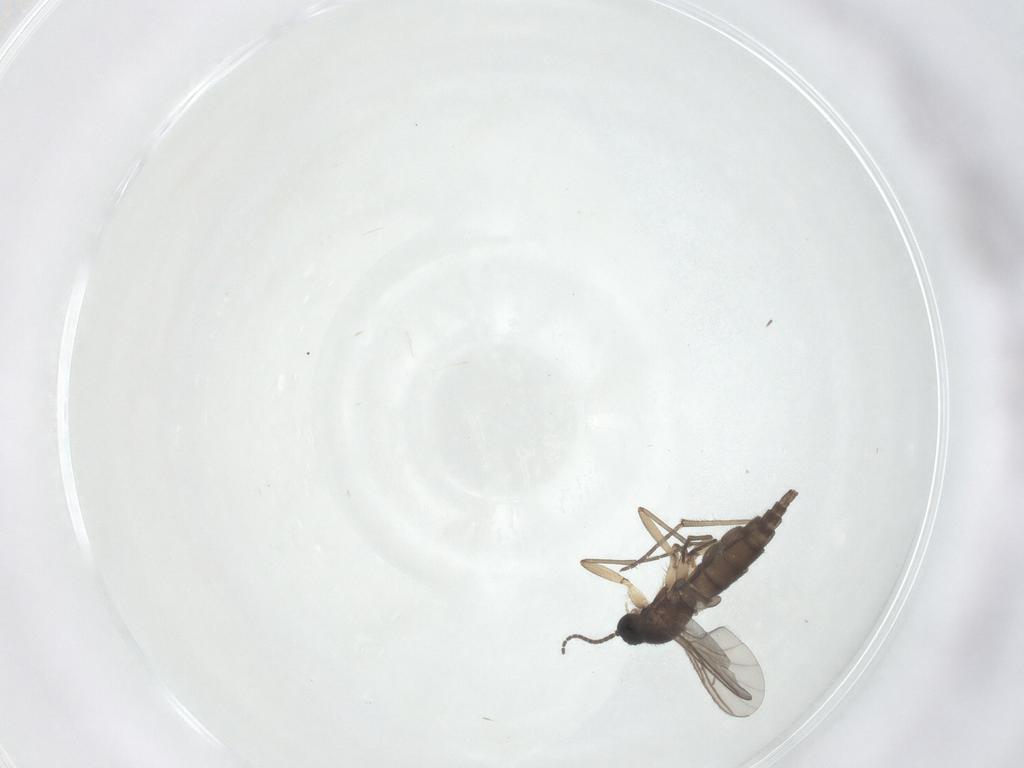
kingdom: Animalia
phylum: Arthropoda
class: Insecta
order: Diptera
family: Sciaridae
